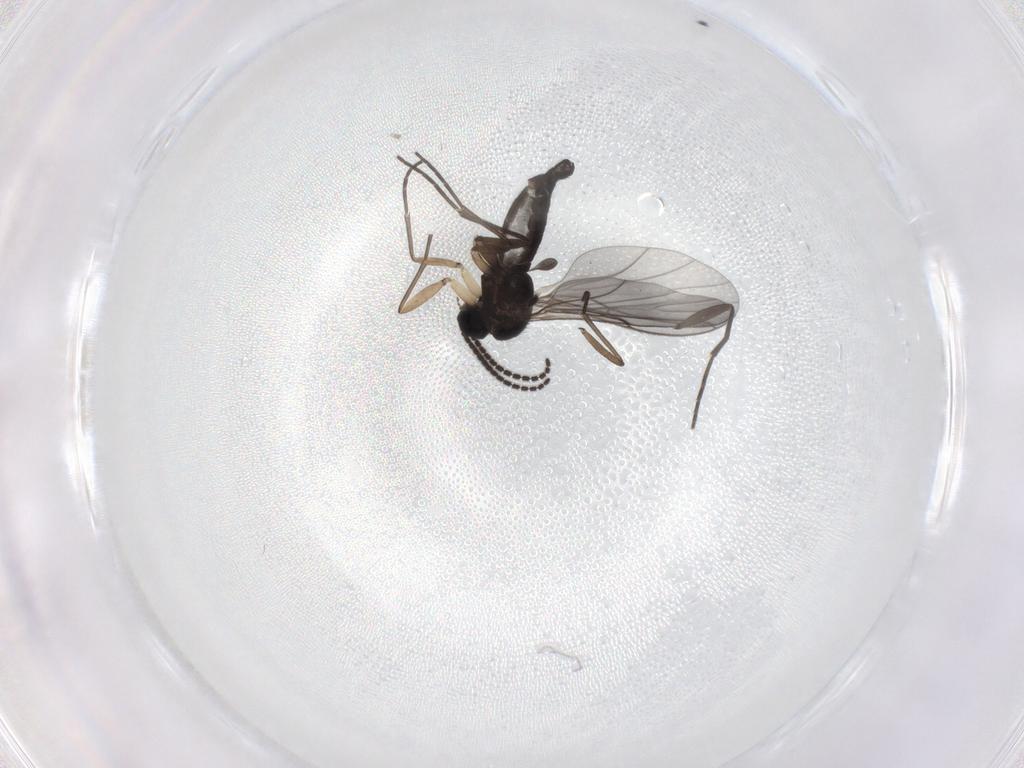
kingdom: Animalia
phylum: Arthropoda
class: Insecta
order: Diptera
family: Sciaridae
